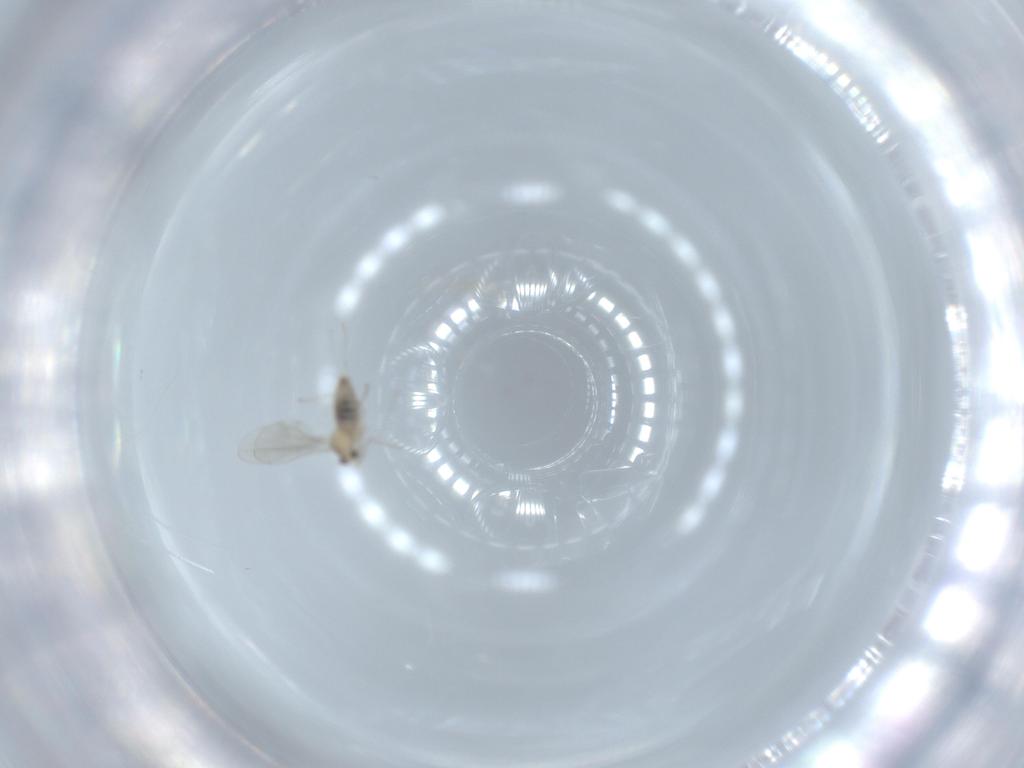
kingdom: Animalia
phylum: Arthropoda
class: Insecta
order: Diptera
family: Cecidomyiidae
